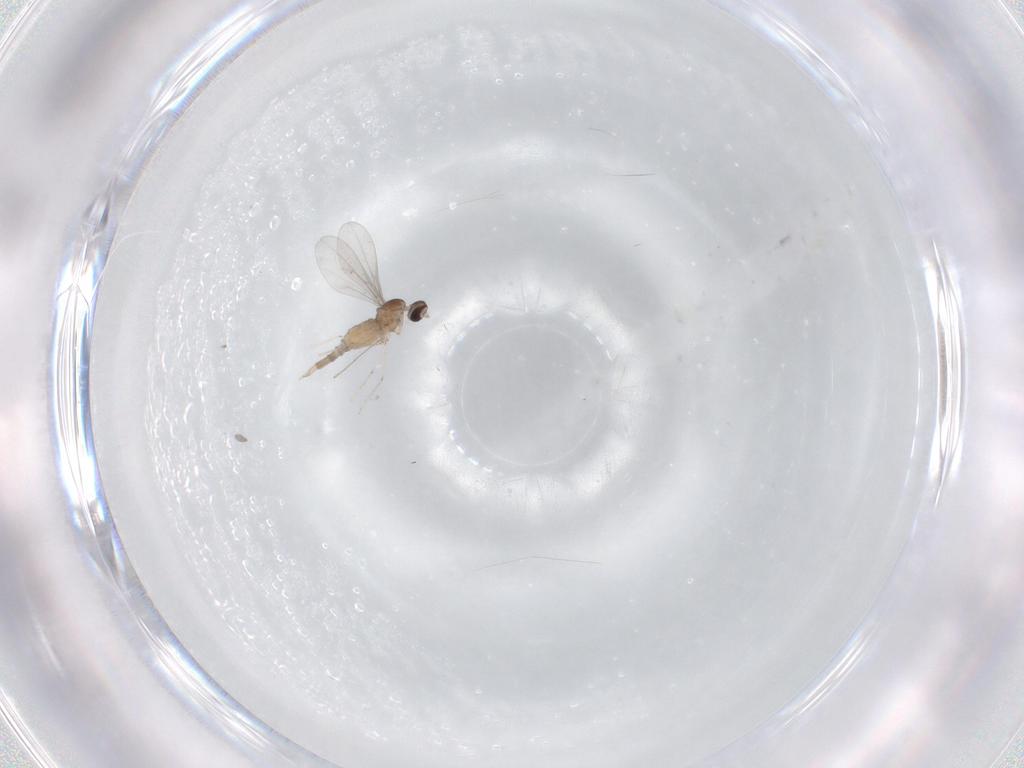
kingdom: Animalia
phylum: Arthropoda
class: Insecta
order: Diptera
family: Cecidomyiidae
